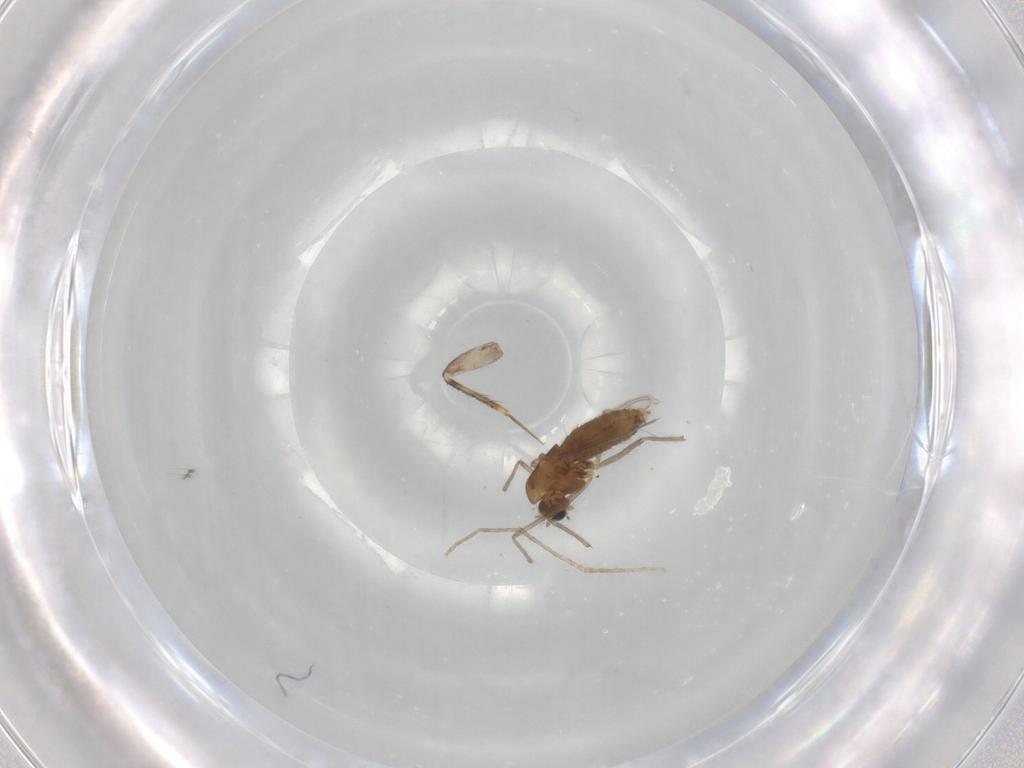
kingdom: Animalia
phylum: Arthropoda
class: Insecta
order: Diptera
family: Chironomidae
